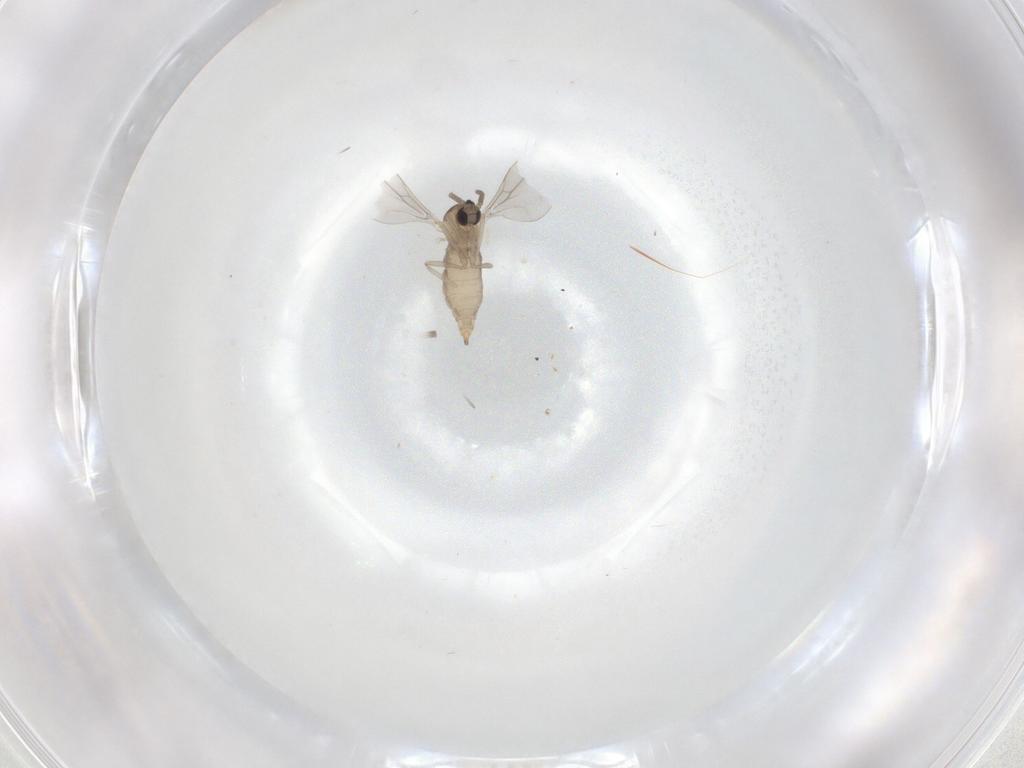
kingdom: Animalia
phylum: Arthropoda
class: Insecta
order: Diptera
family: Cecidomyiidae
